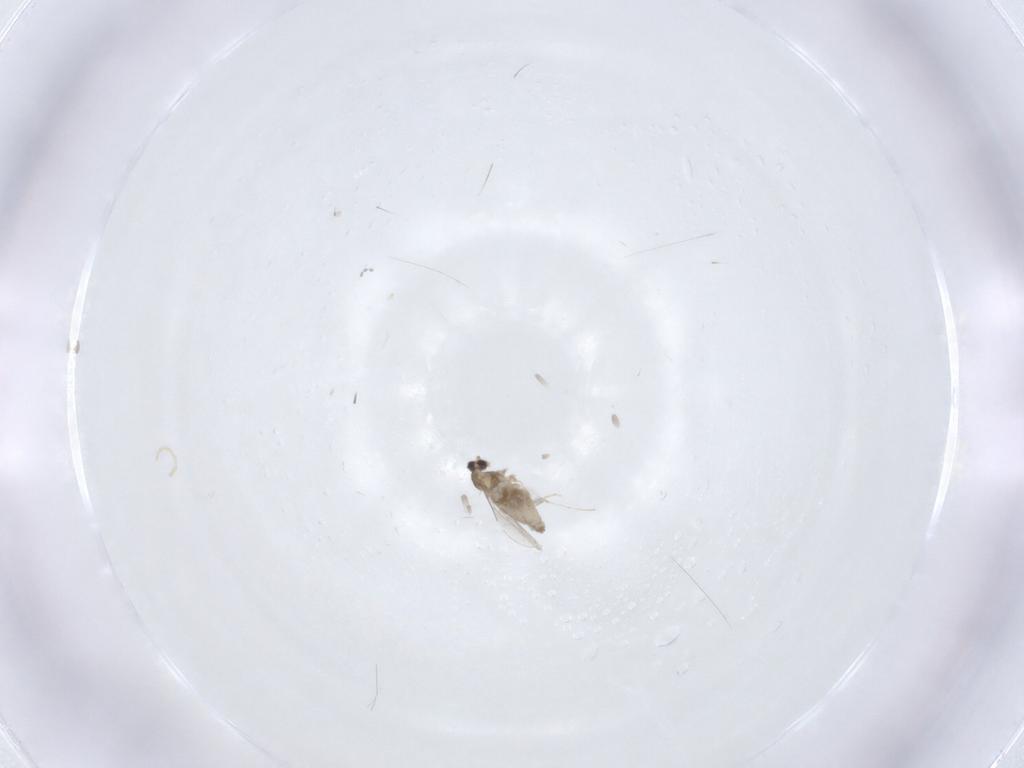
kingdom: Animalia
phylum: Arthropoda
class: Insecta
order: Diptera
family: Cecidomyiidae
